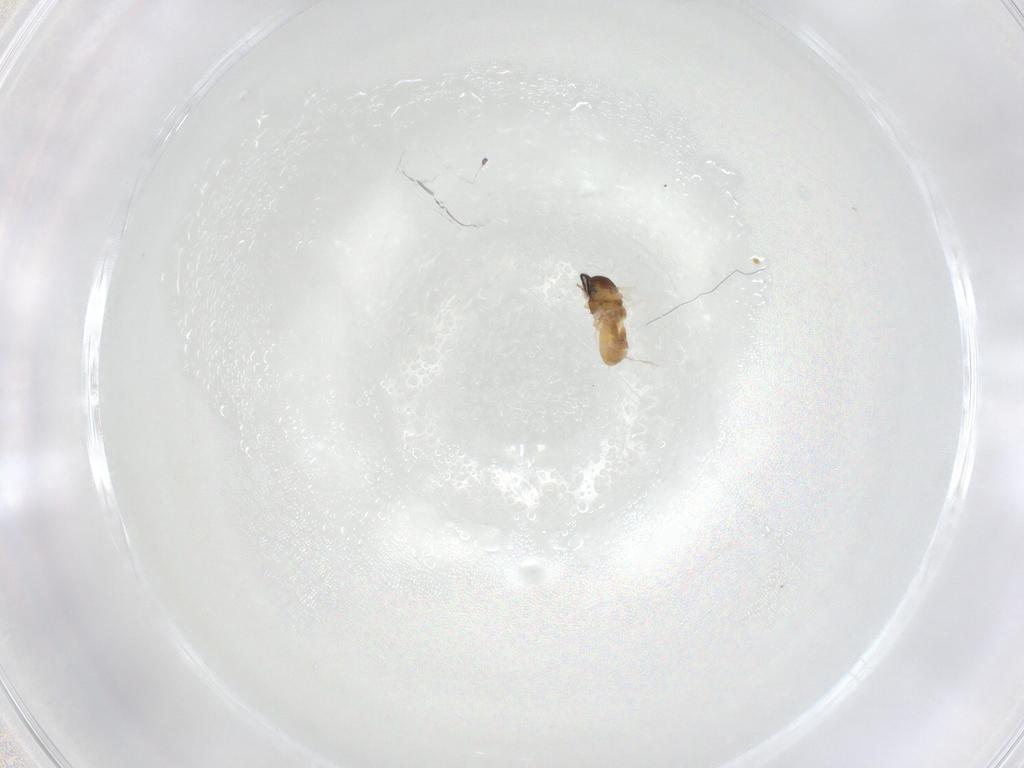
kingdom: Animalia
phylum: Arthropoda
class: Insecta
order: Diptera
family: Cecidomyiidae
